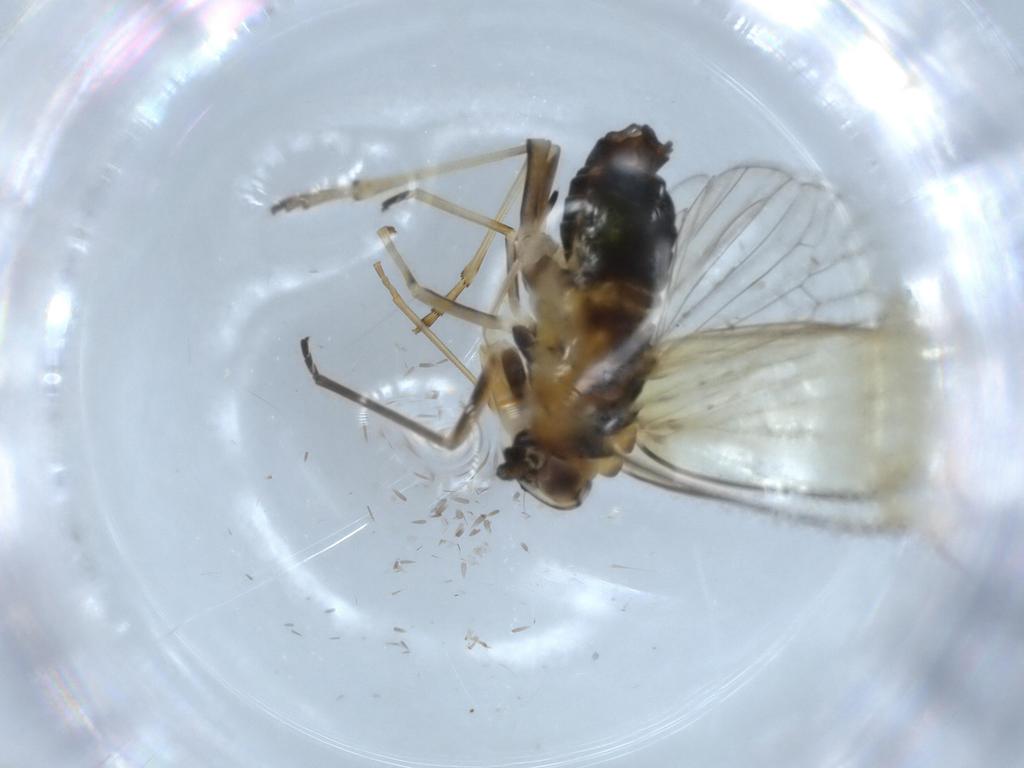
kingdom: Animalia
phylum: Arthropoda
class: Insecta
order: Hemiptera
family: Kinnaridae
